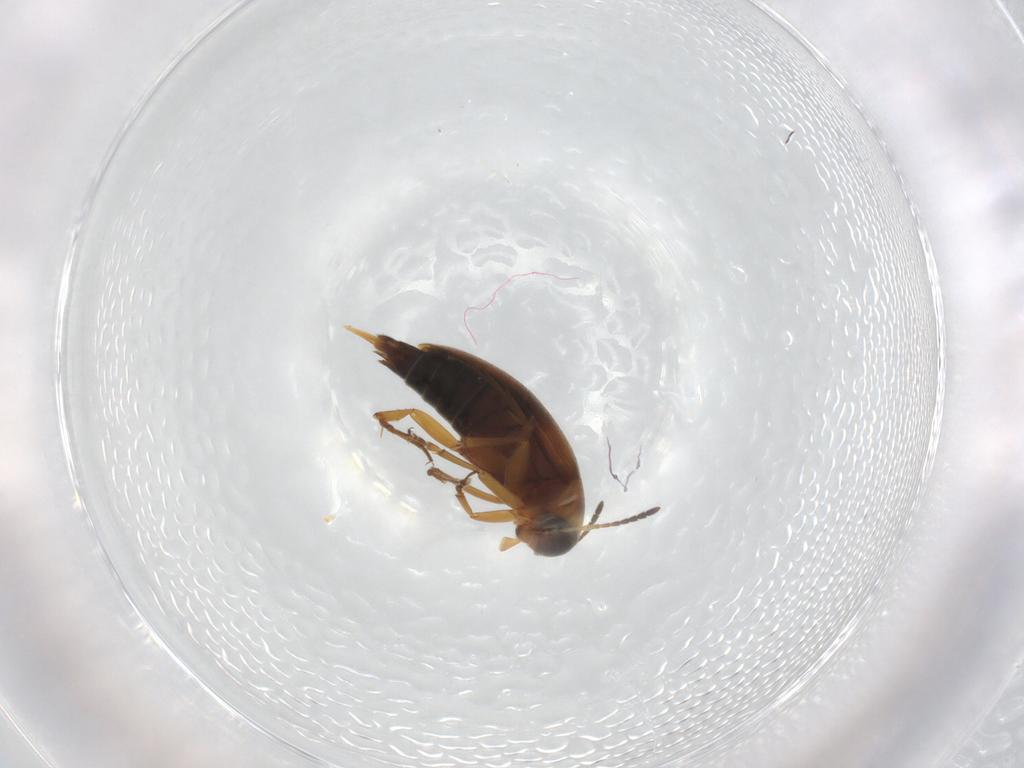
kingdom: Animalia
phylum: Arthropoda
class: Insecta
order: Coleoptera
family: Scraptiidae
